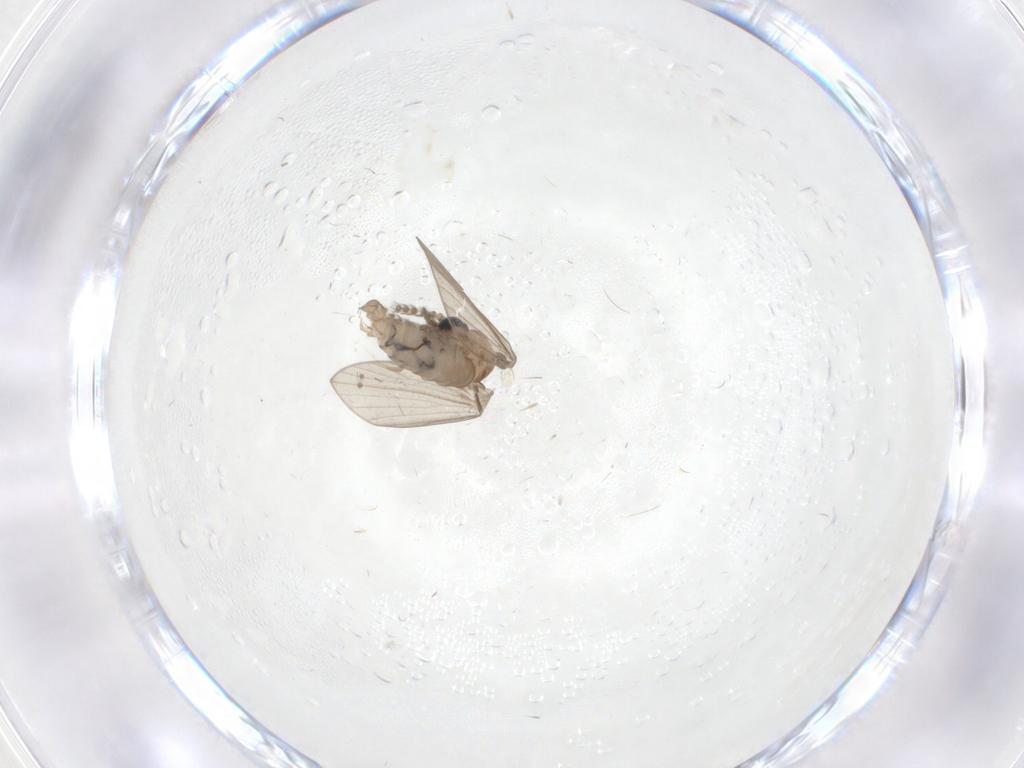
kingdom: Animalia
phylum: Arthropoda
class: Insecta
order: Diptera
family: Psychodidae
